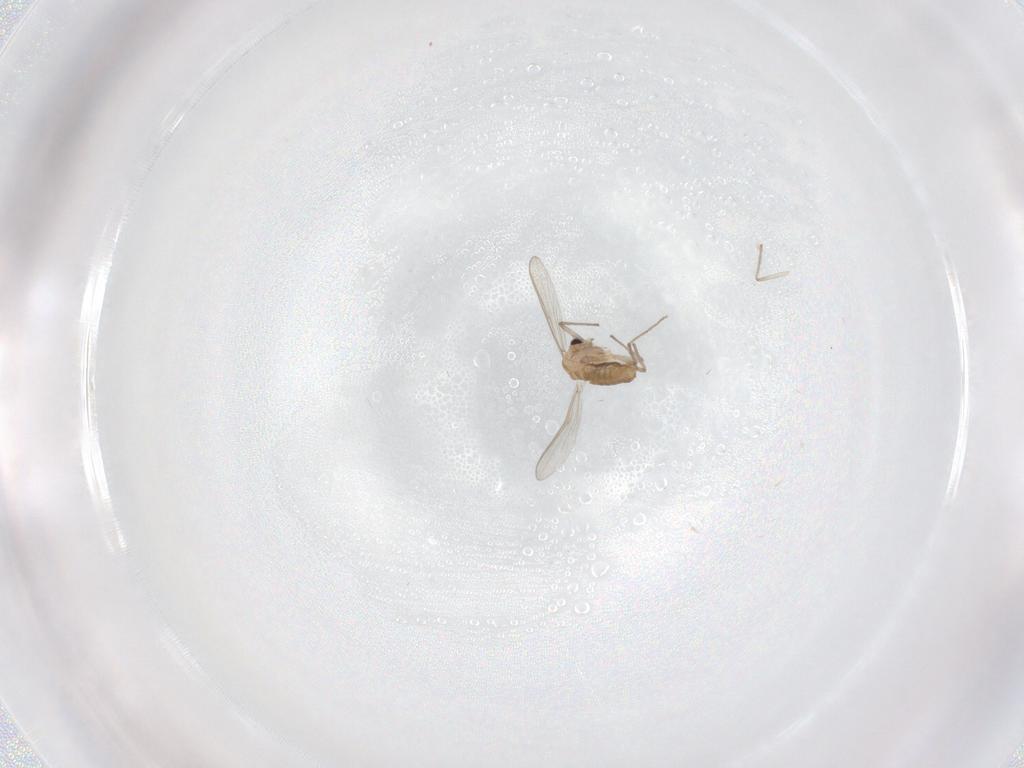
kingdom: Animalia
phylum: Arthropoda
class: Insecta
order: Diptera
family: Chironomidae
